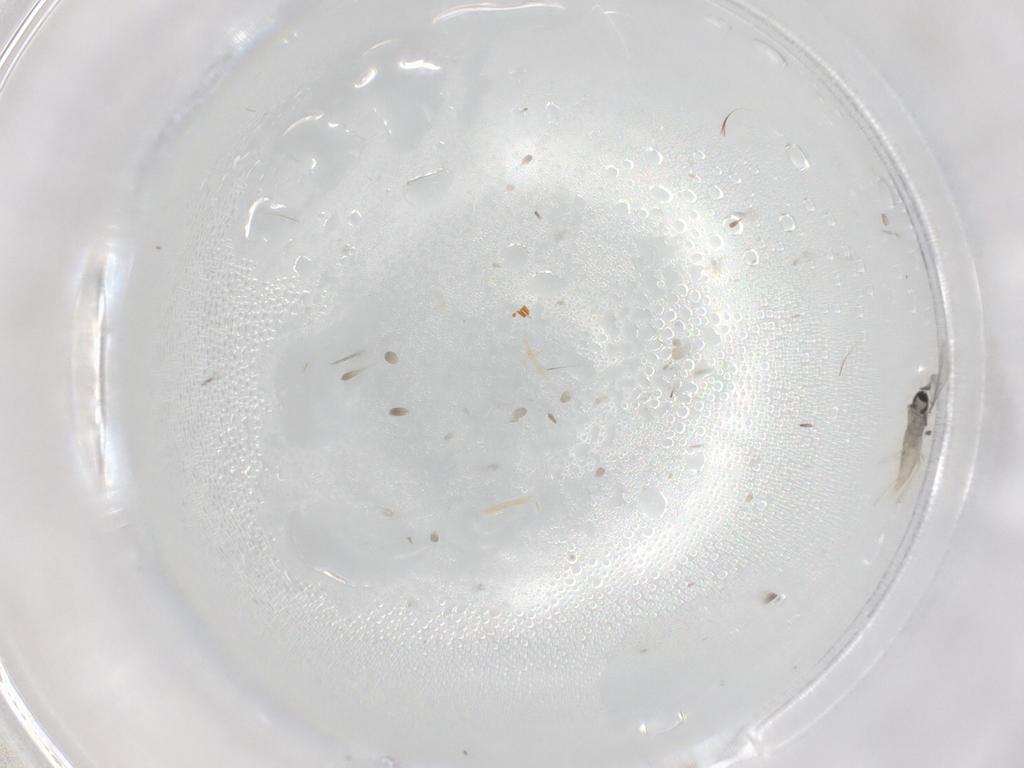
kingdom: Animalia
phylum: Arthropoda
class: Insecta
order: Diptera
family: Cecidomyiidae
